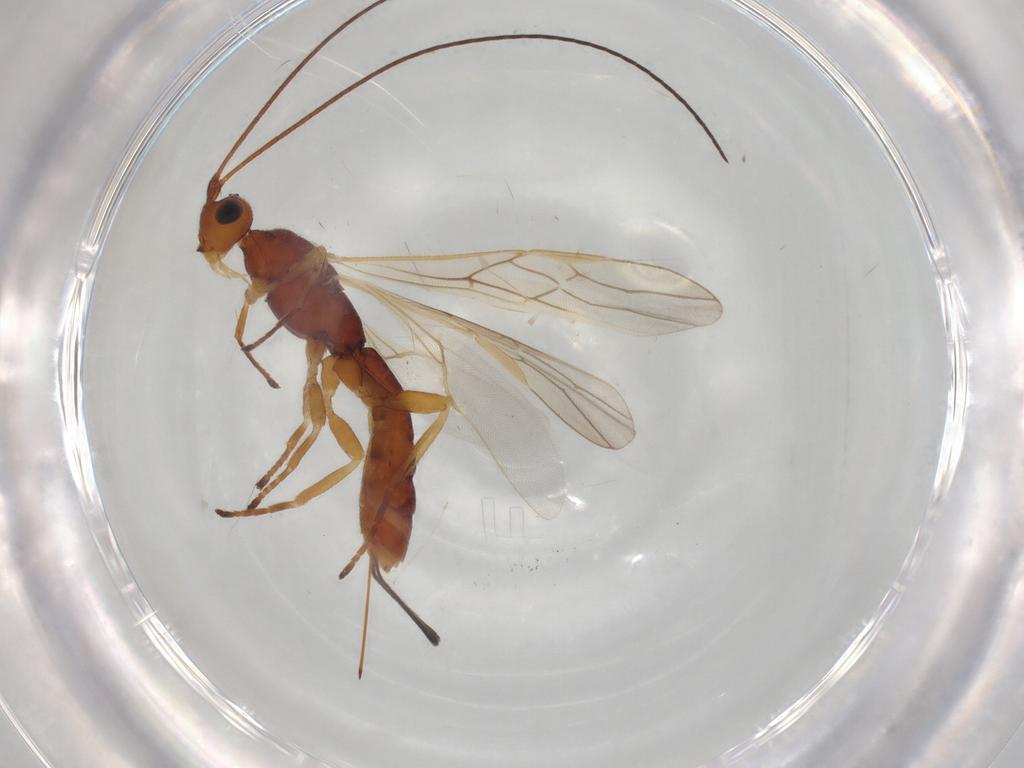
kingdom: Animalia
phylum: Arthropoda
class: Insecta
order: Hymenoptera
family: Braconidae
